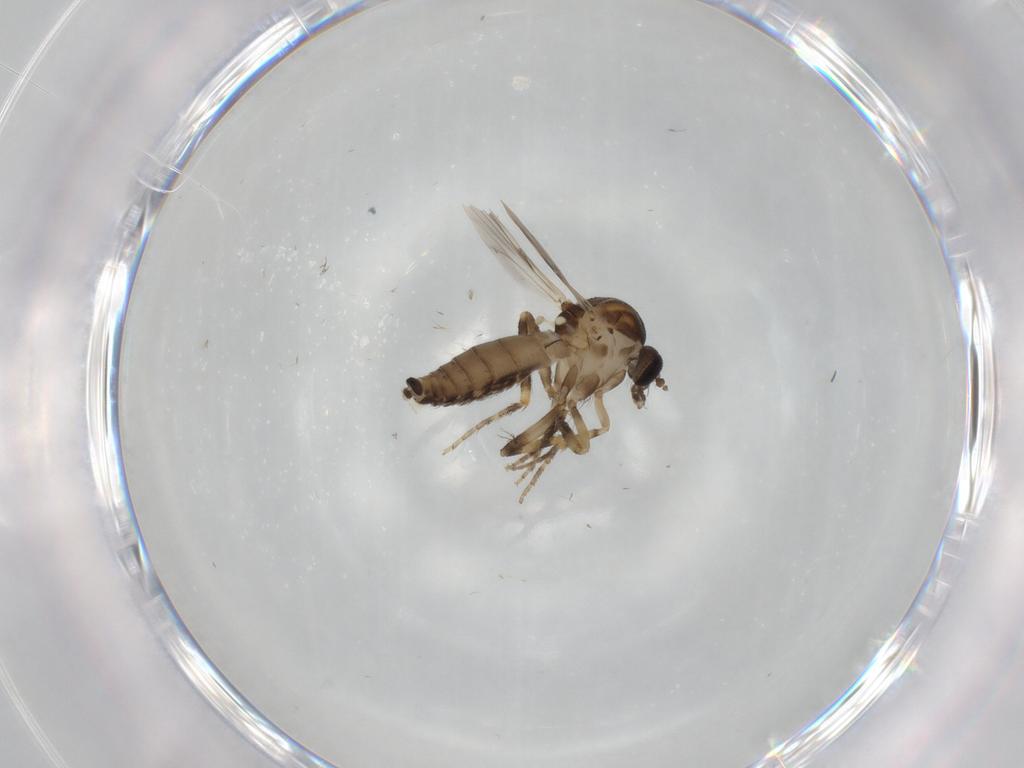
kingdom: Animalia
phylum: Arthropoda
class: Insecta
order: Diptera
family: Ceratopogonidae
